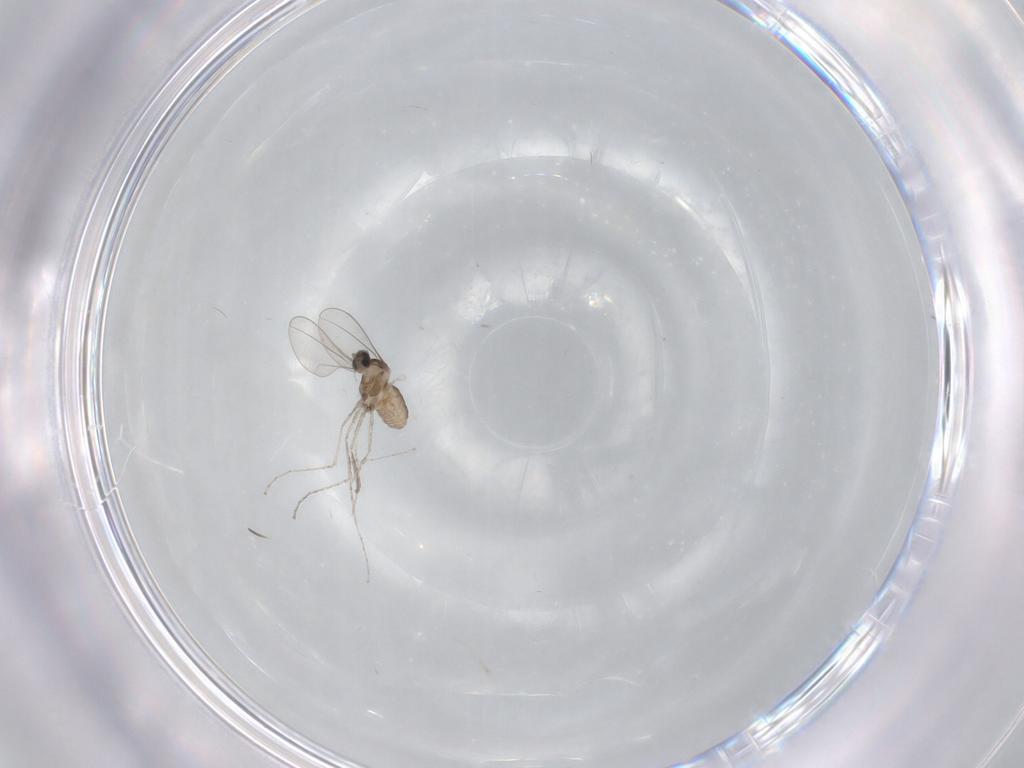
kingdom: Animalia
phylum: Arthropoda
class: Insecta
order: Diptera
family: Cecidomyiidae
